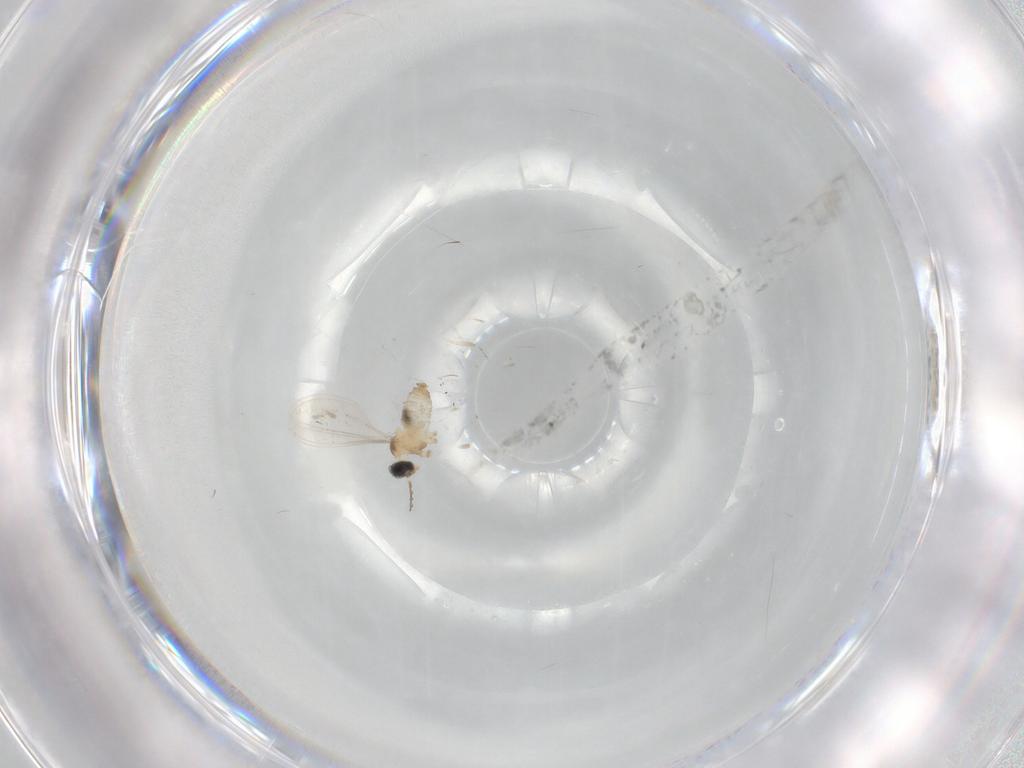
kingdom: Animalia
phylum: Arthropoda
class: Insecta
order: Diptera
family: Cecidomyiidae
